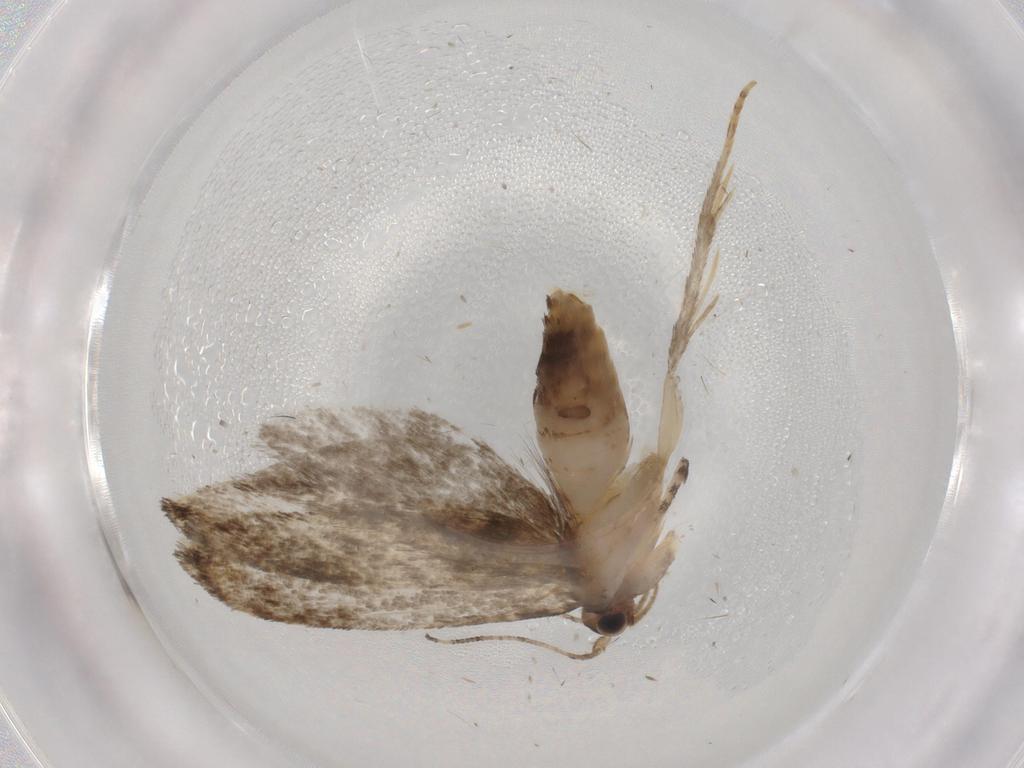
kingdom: Animalia
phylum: Arthropoda
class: Insecta
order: Lepidoptera
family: Tineidae
